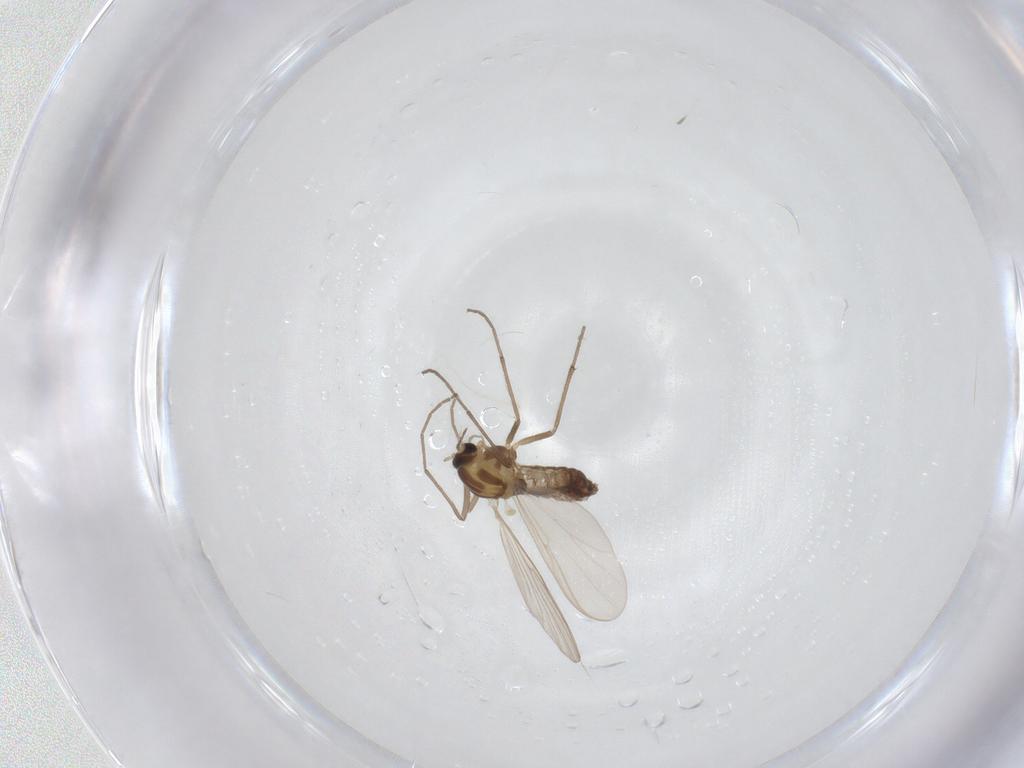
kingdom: Animalia
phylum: Arthropoda
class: Insecta
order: Diptera
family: Chironomidae
